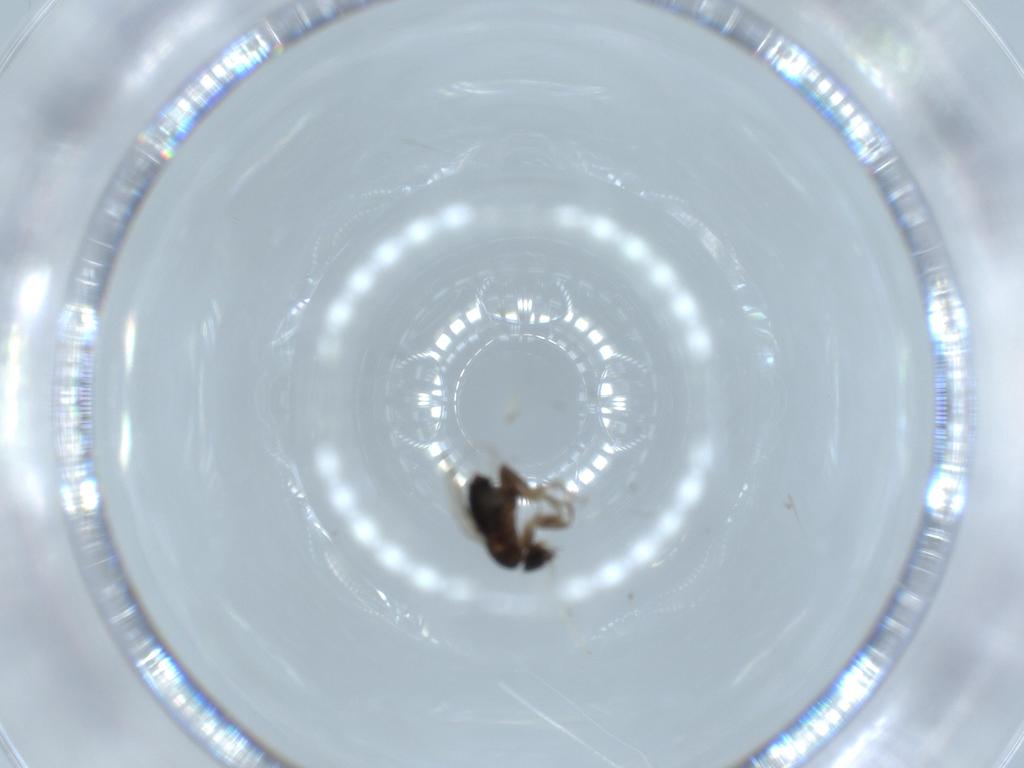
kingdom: Animalia
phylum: Arthropoda
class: Insecta
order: Diptera
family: Phoridae
